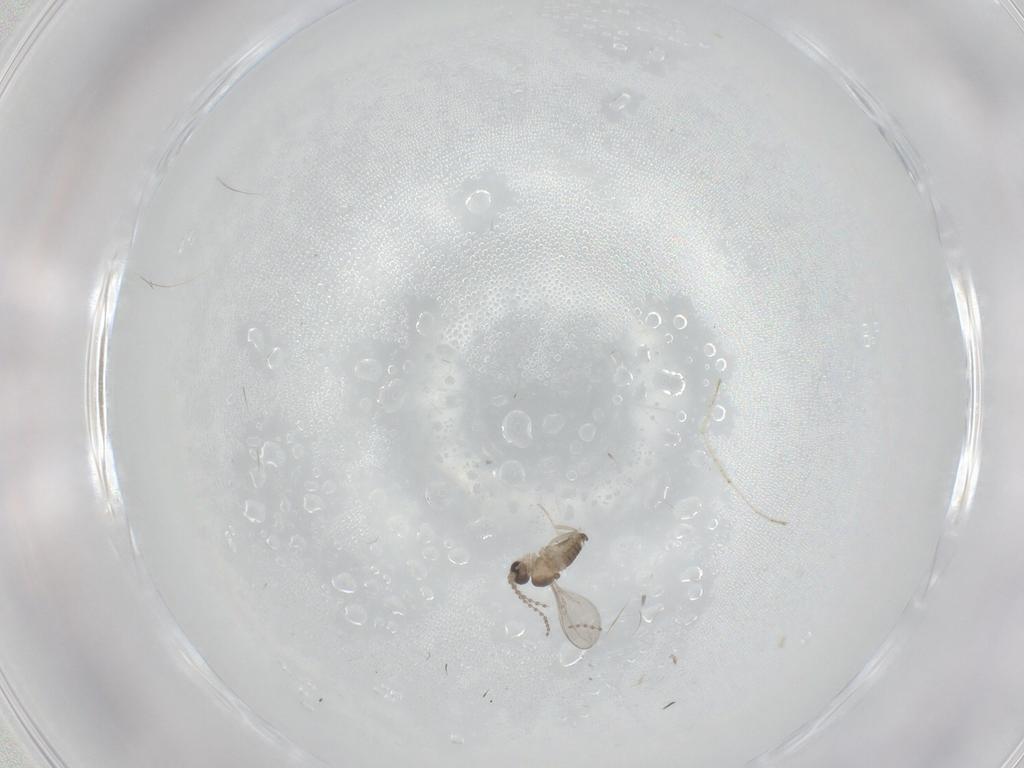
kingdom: Animalia
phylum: Arthropoda
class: Insecta
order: Diptera
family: Cecidomyiidae
